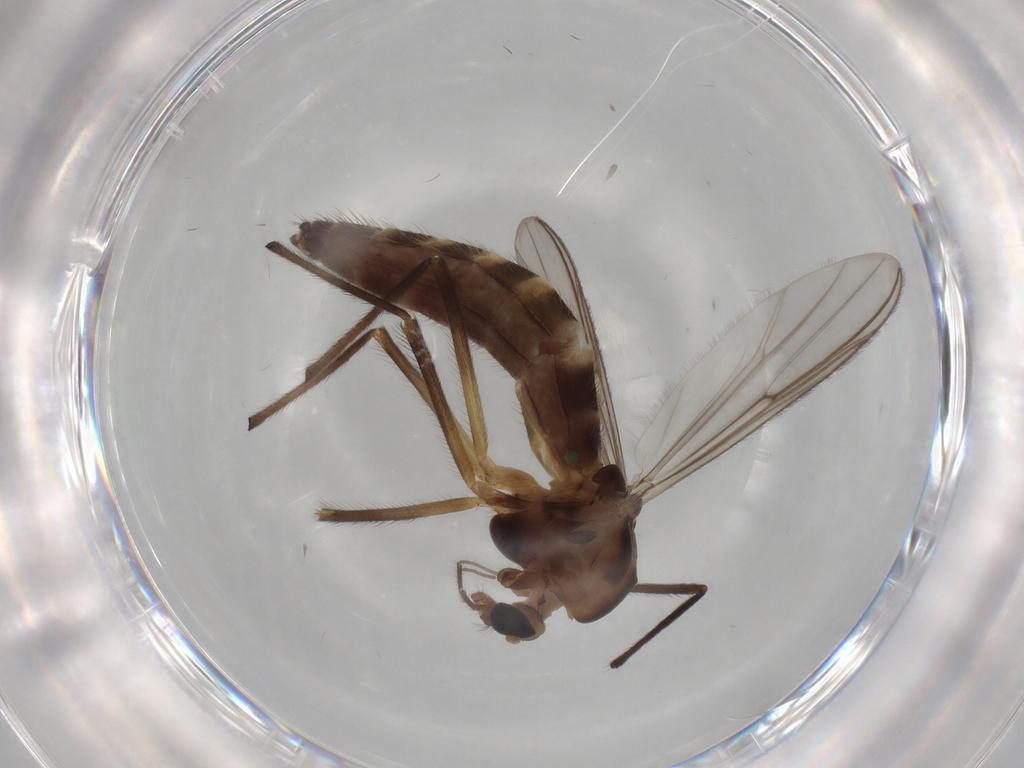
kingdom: Animalia
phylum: Arthropoda
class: Insecta
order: Diptera
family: Chironomidae
